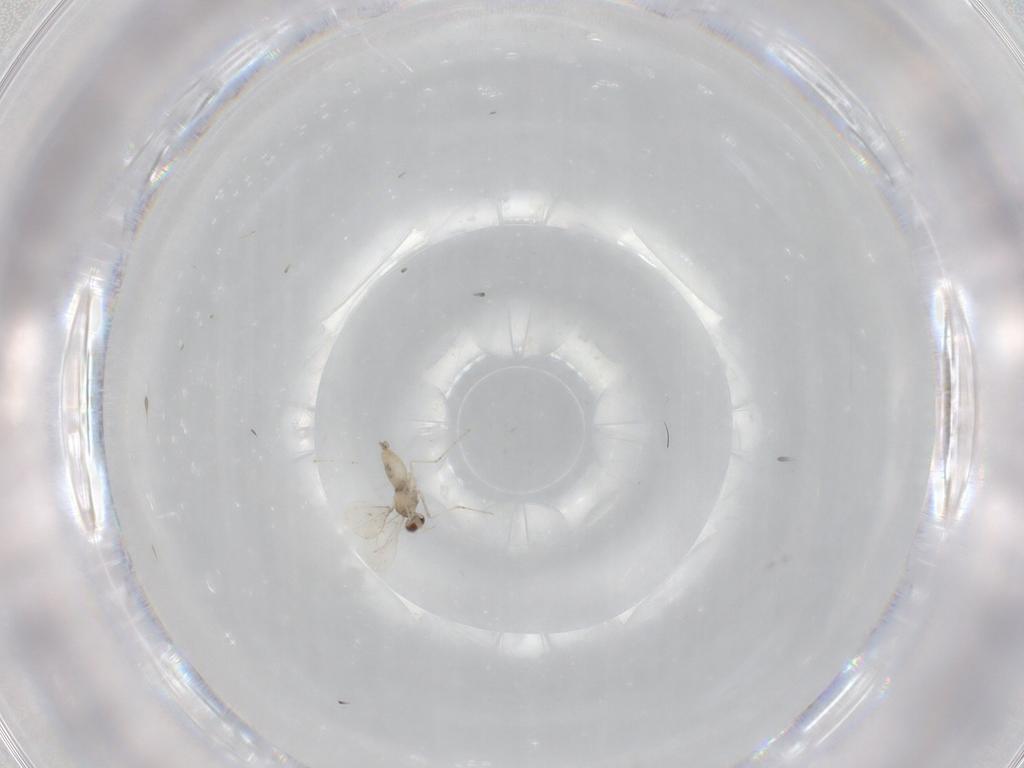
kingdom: Animalia
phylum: Arthropoda
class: Insecta
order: Diptera
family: Cecidomyiidae
